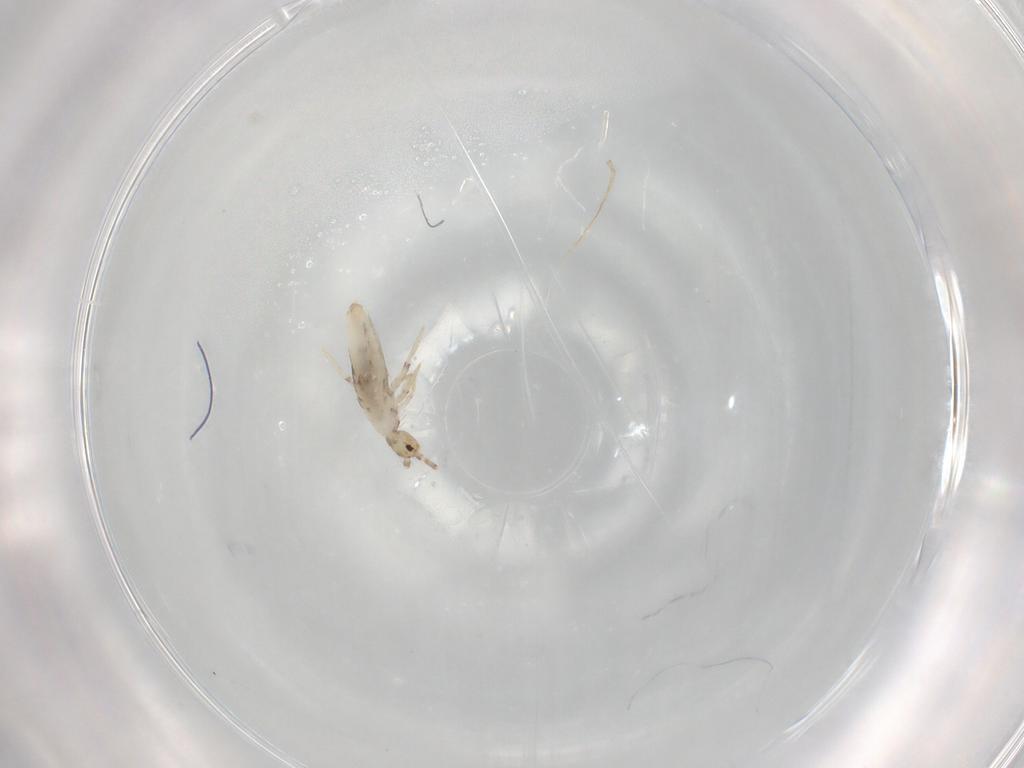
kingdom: Animalia
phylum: Arthropoda
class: Collembola
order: Entomobryomorpha
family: Entomobryidae
